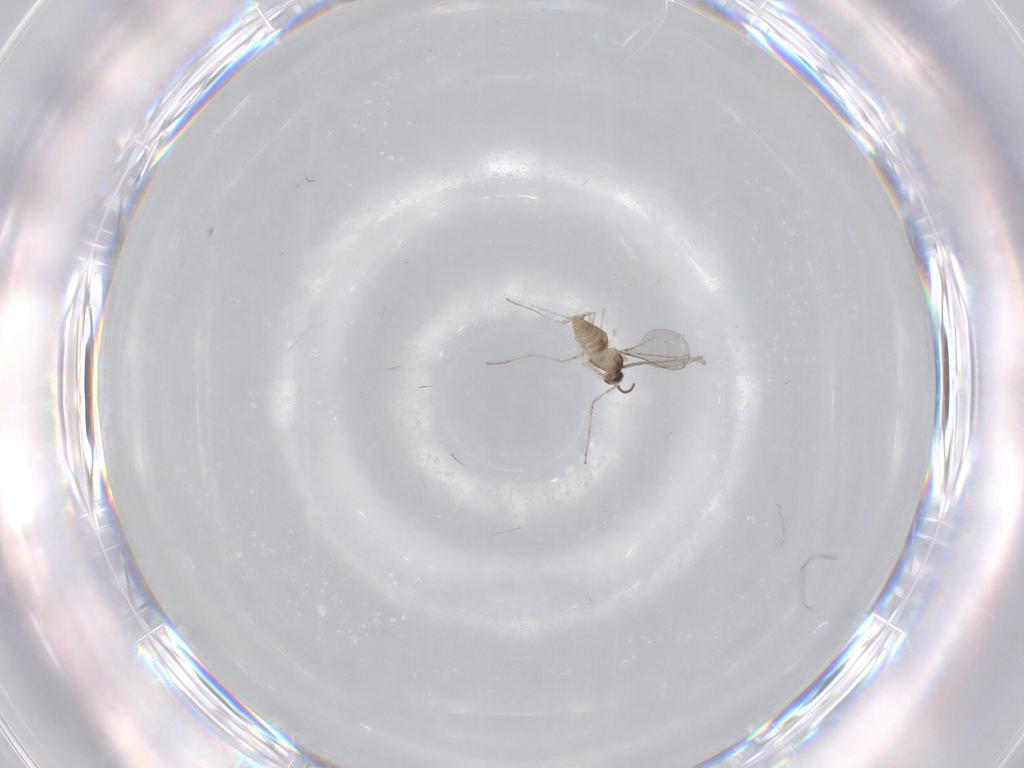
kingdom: Animalia
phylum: Arthropoda
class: Insecta
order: Diptera
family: Cecidomyiidae
